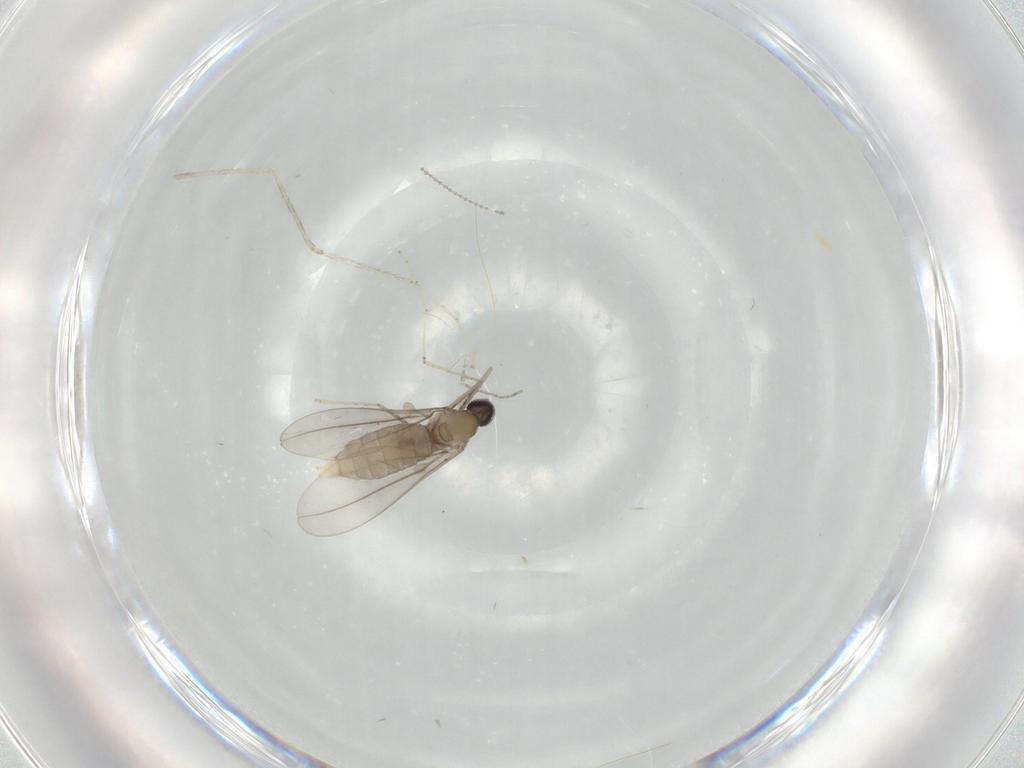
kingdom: Animalia
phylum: Arthropoda
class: Insecta
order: Diptera
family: Cecidomyiidae
